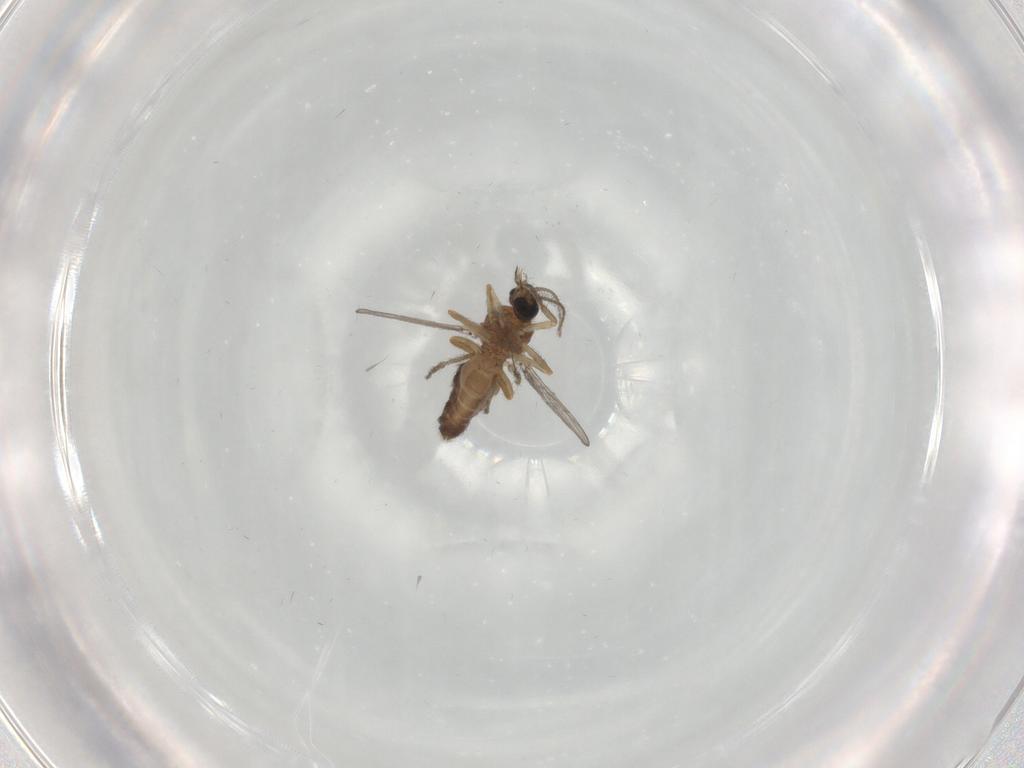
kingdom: Animalia
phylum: Arthropoda
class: Insecta
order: Diptera
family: Ceratopogonidae
